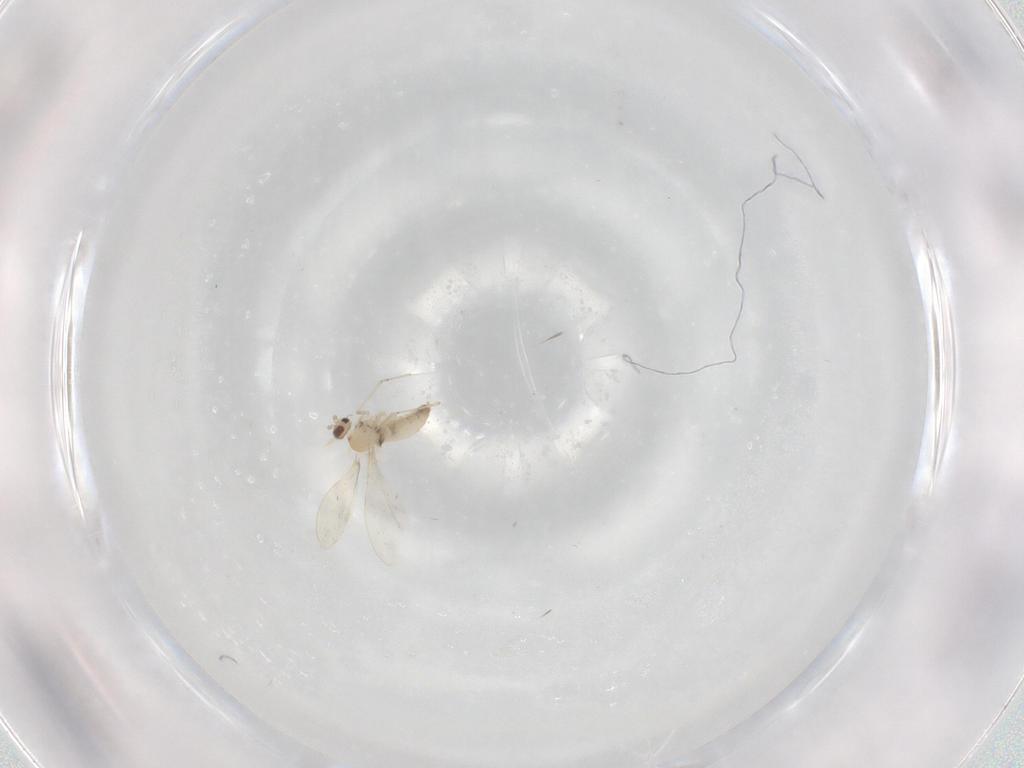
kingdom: Animalia
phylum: Arthropoda
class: Insecta
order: Diptera
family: Cecidomyiidae
